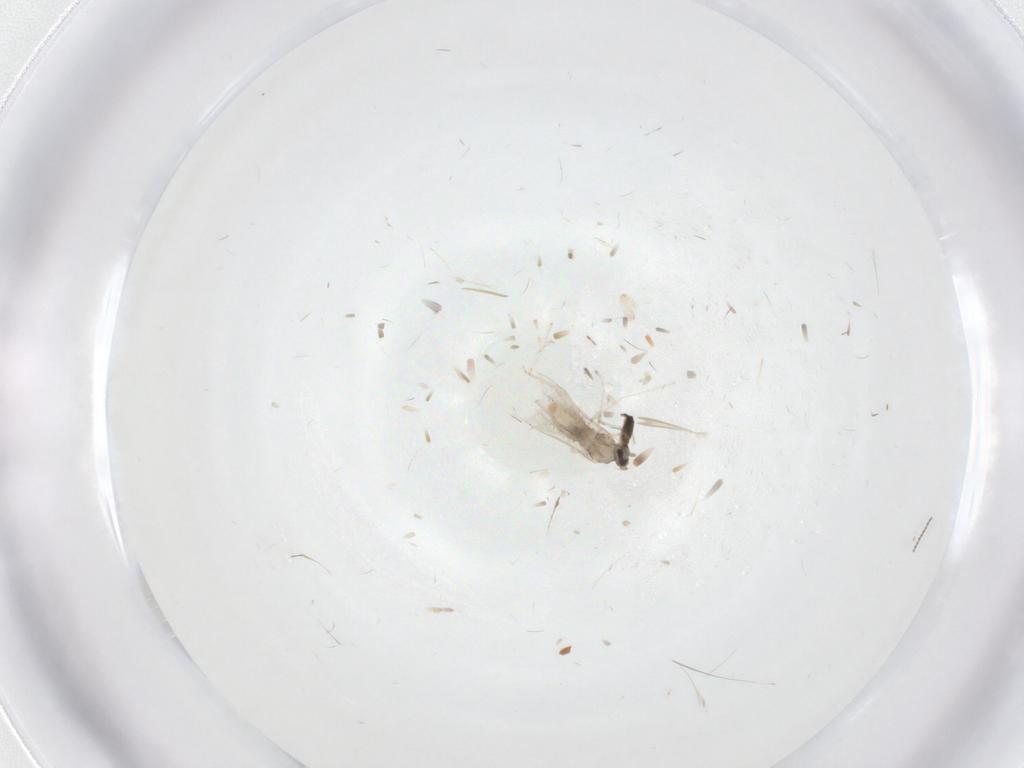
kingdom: Animalia
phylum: Arthropoda
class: Insecta
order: Diptera
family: Cecidomyiidae
